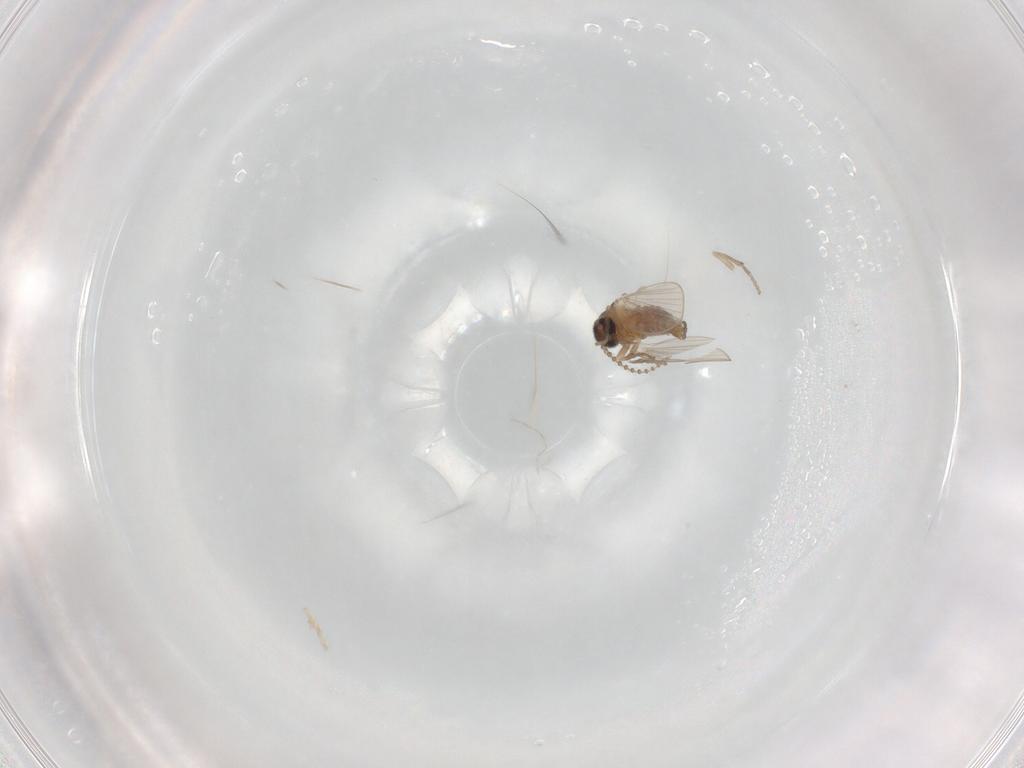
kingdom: Animalia
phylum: Arthropoda
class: Insecta
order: Diptera
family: Psychodidae
